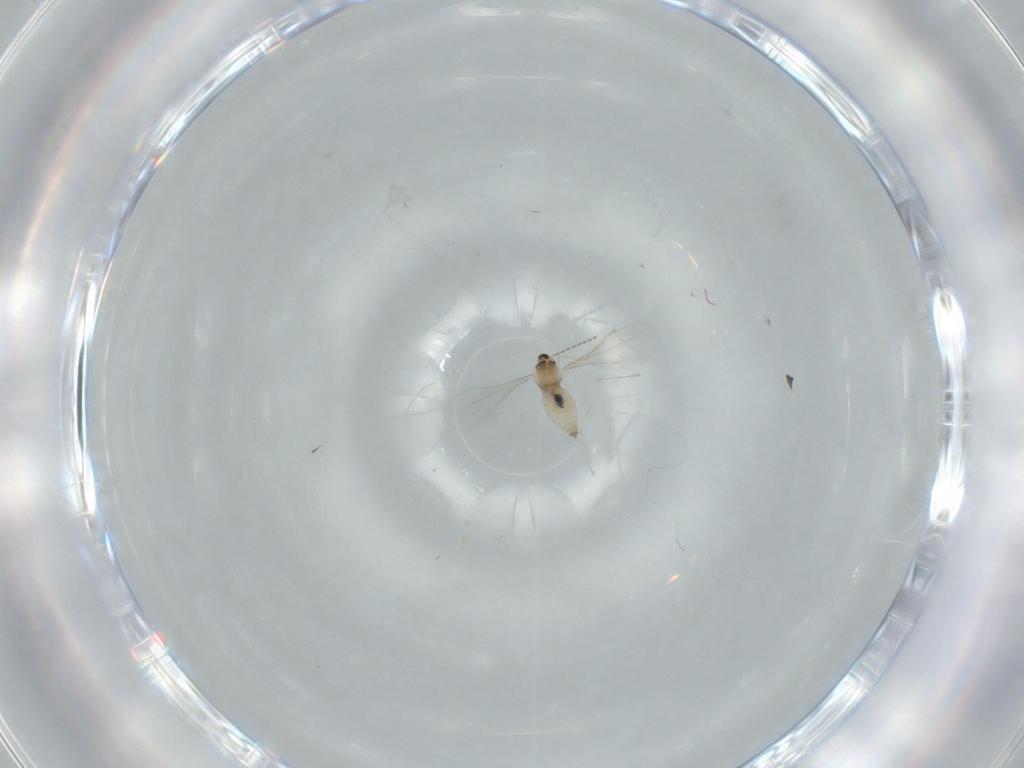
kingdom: Animalia
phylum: Arthropoda
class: Insecta
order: Diptera
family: Cecidomyiidae
